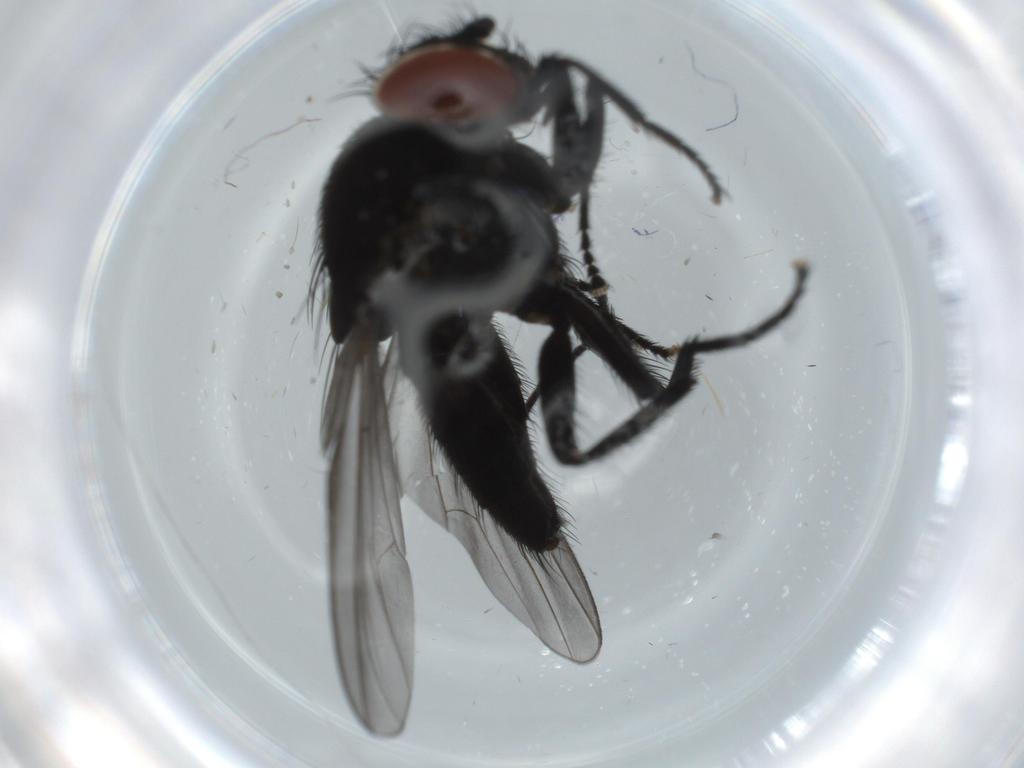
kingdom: Animalia
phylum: Arthropoda
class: Insecta
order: Diptera
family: Milichiidae
